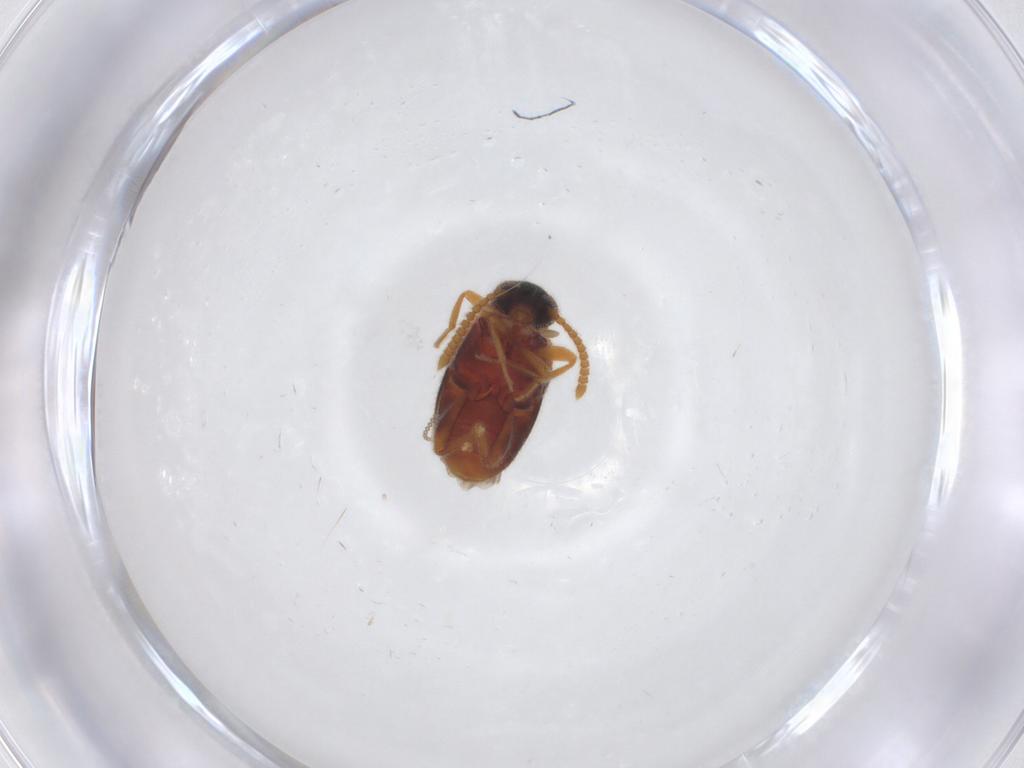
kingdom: Animalia
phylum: Arthropoda
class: Insecta
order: Coleoptera
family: Aderidae
